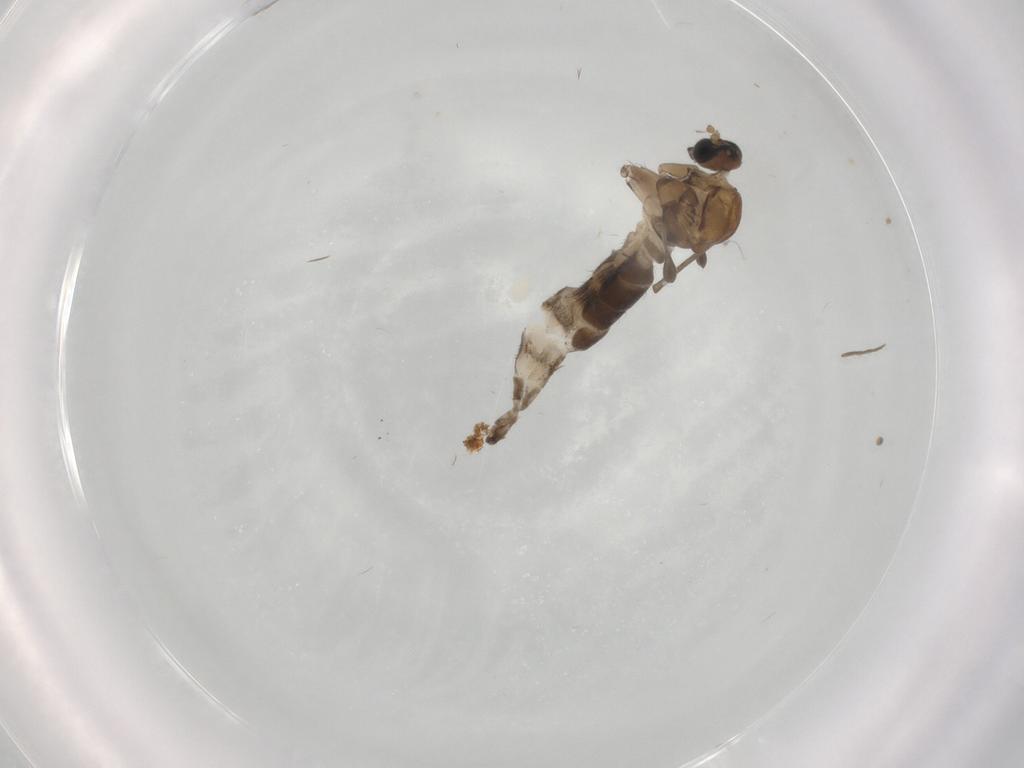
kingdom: Animalia
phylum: Arthropoda
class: Insecta
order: Diptera
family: Sciaridae
